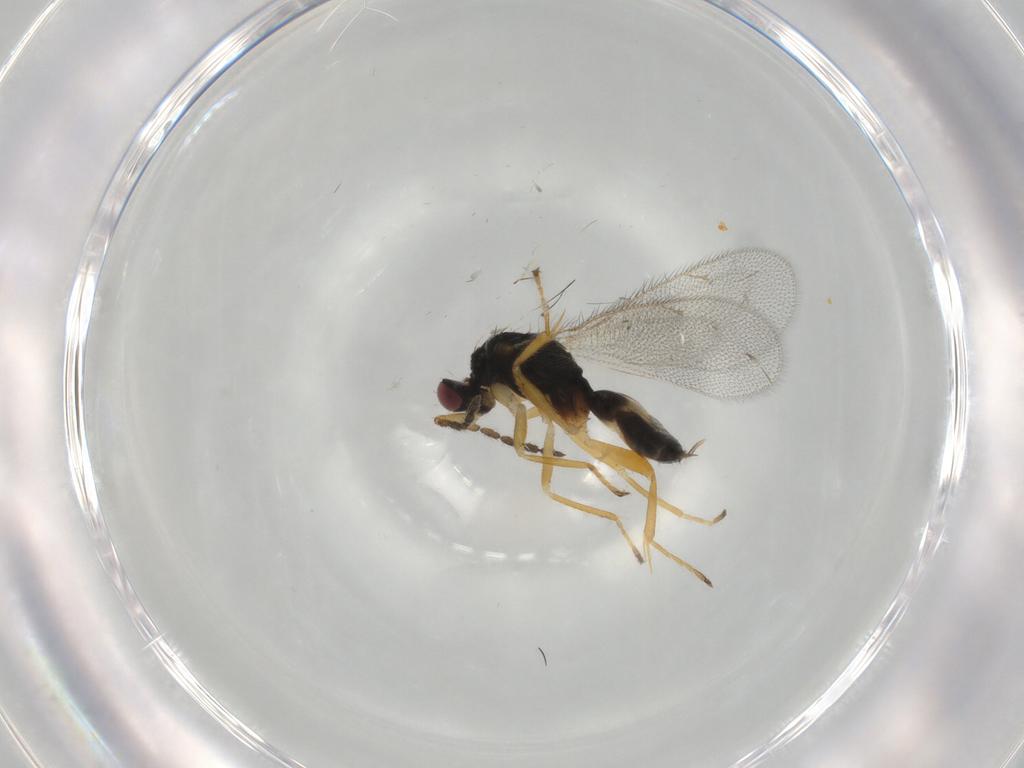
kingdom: Animalia
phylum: Arthropoda
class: Insecta
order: Hymenoptera
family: Eulophidae
